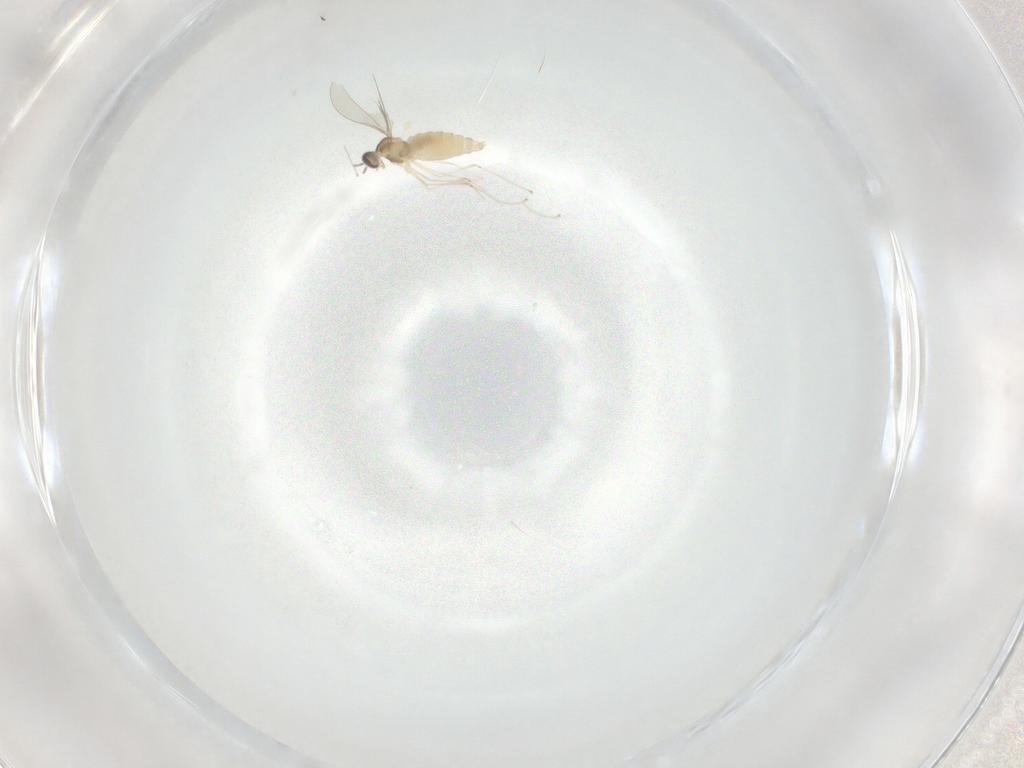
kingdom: Animalia
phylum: Arthropoda
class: Insecta
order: Diptera
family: Cecidomyiidae
